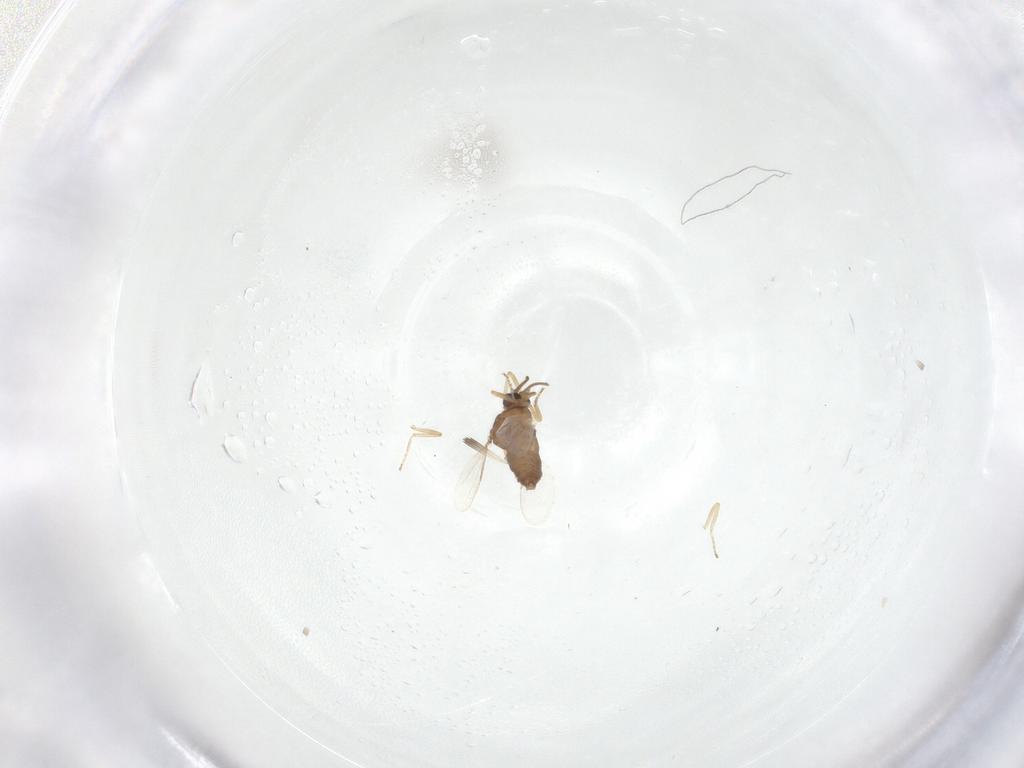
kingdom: Animalia
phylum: Arthropoda
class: Insecta
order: Diptera
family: Ceratopogonidae
